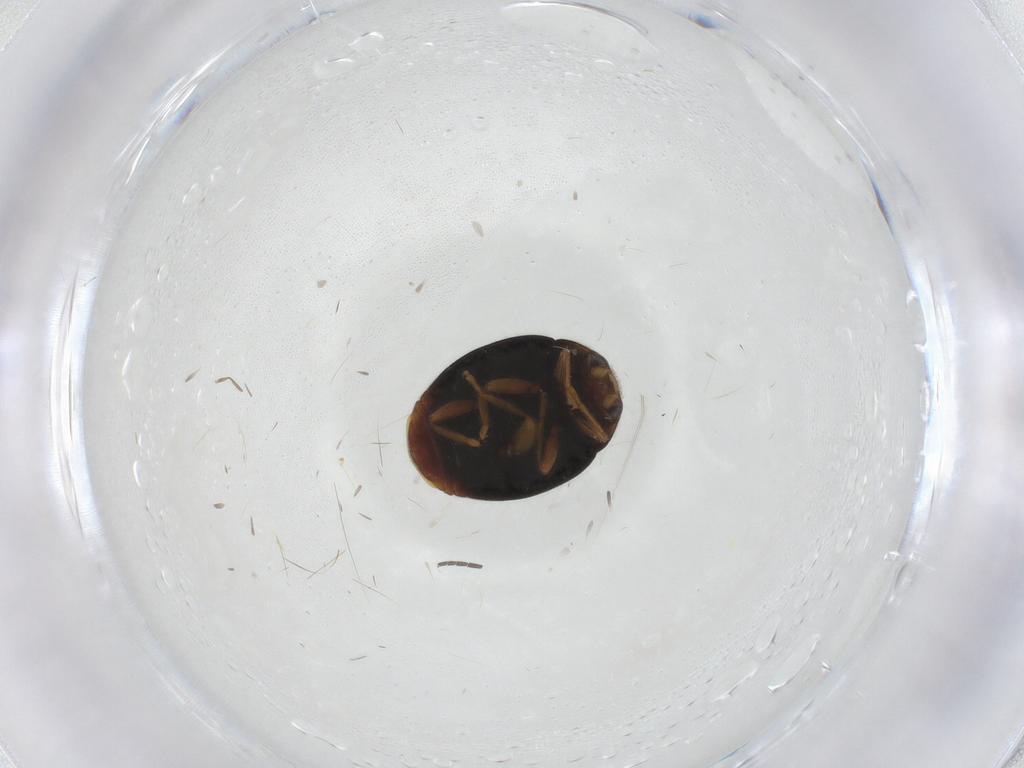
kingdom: Animalia
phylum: Arthropoda
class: Insecta
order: Coleoptera
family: Coccinellidae
